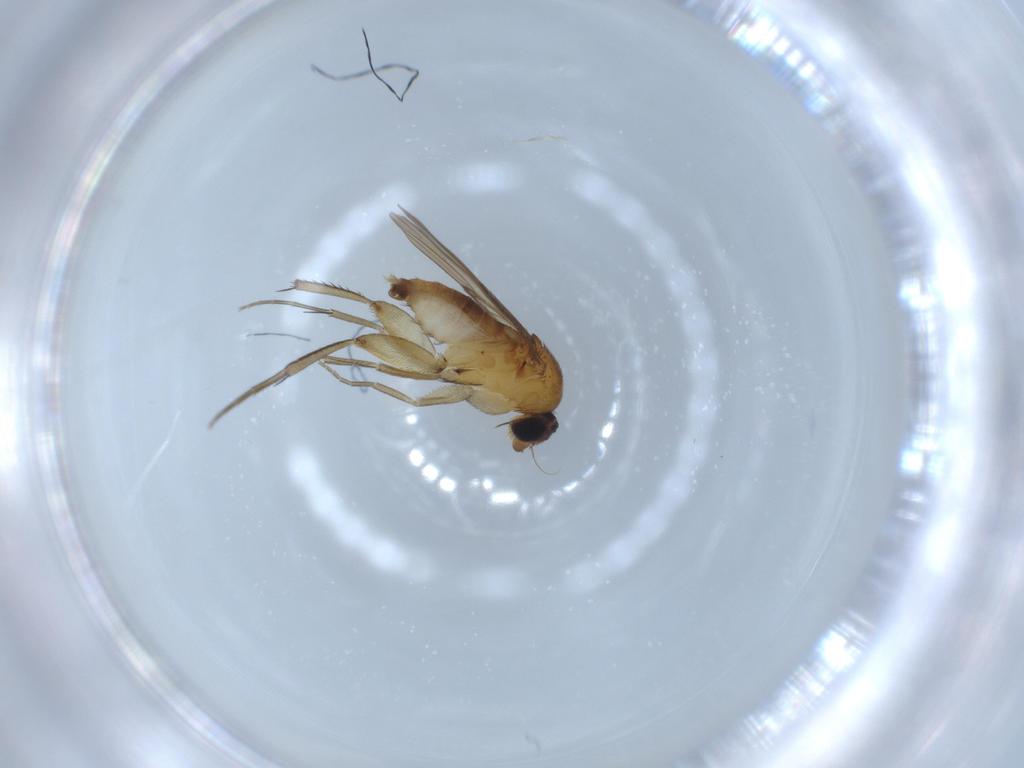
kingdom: Animalia
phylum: Arthropoda
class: Insecta
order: Diptera
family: Phoridae
